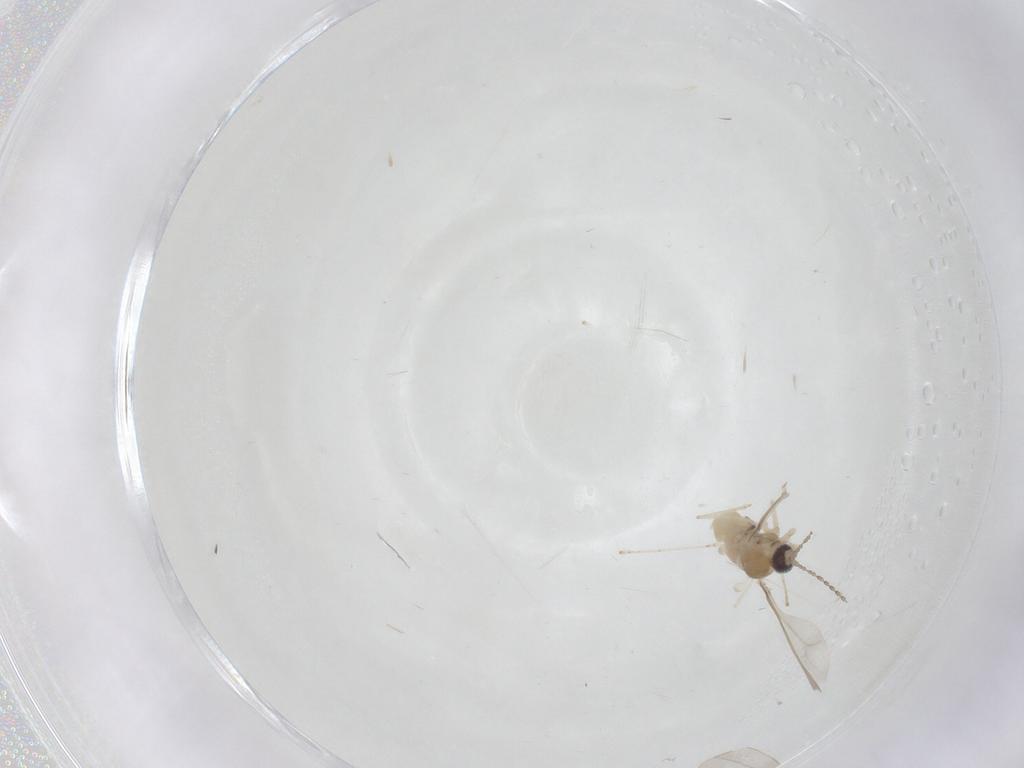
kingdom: Animalia
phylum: Arthropoda
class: Insecta
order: Diptera
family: Cecidomyiidae
